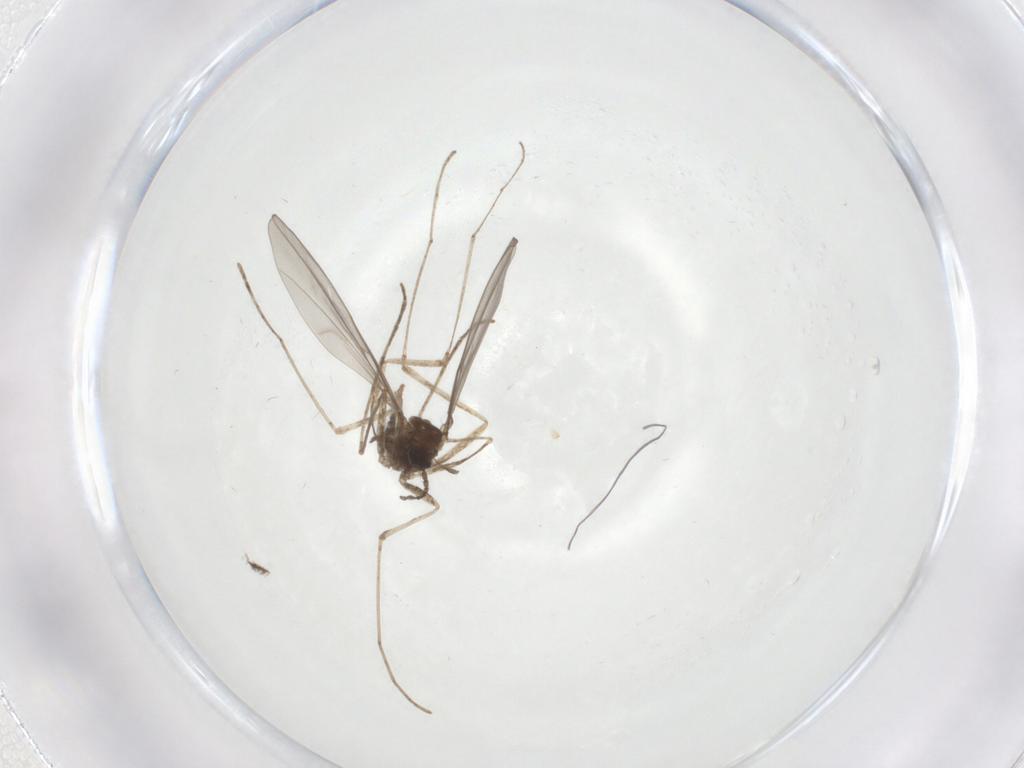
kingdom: Animalia
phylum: Arthropoda
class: Insecta
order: Diptera
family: Cecidomyiidae
